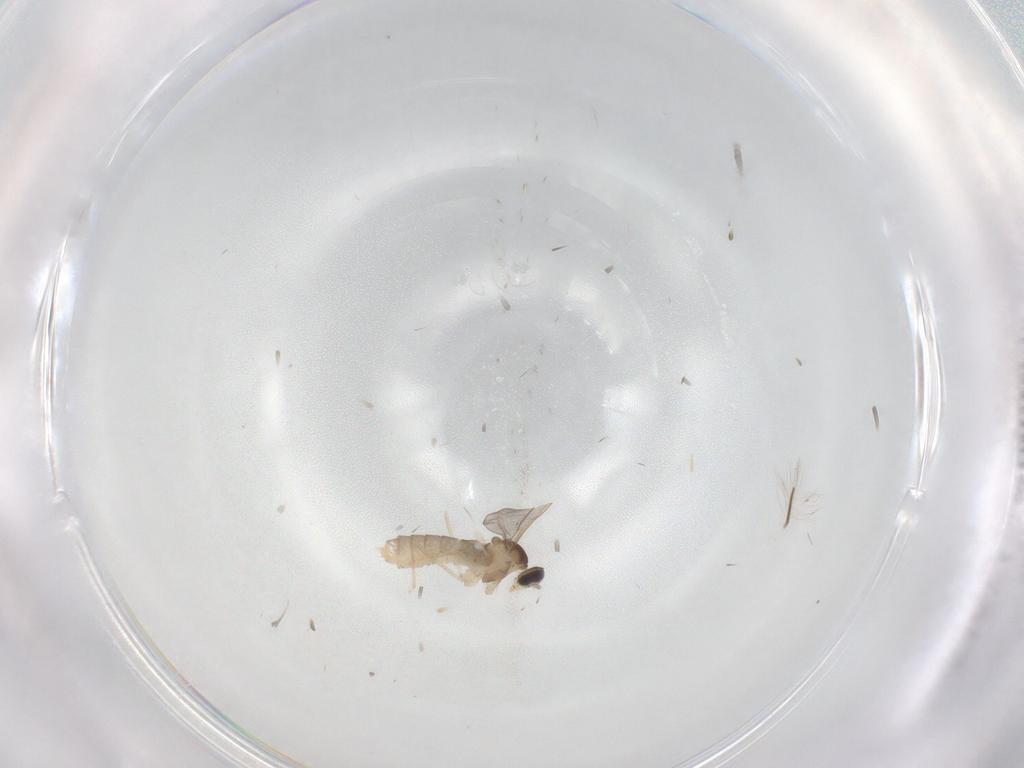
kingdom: Animalia
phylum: Arthropoda
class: Insecta
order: Diptera
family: Cecidomyiidae
